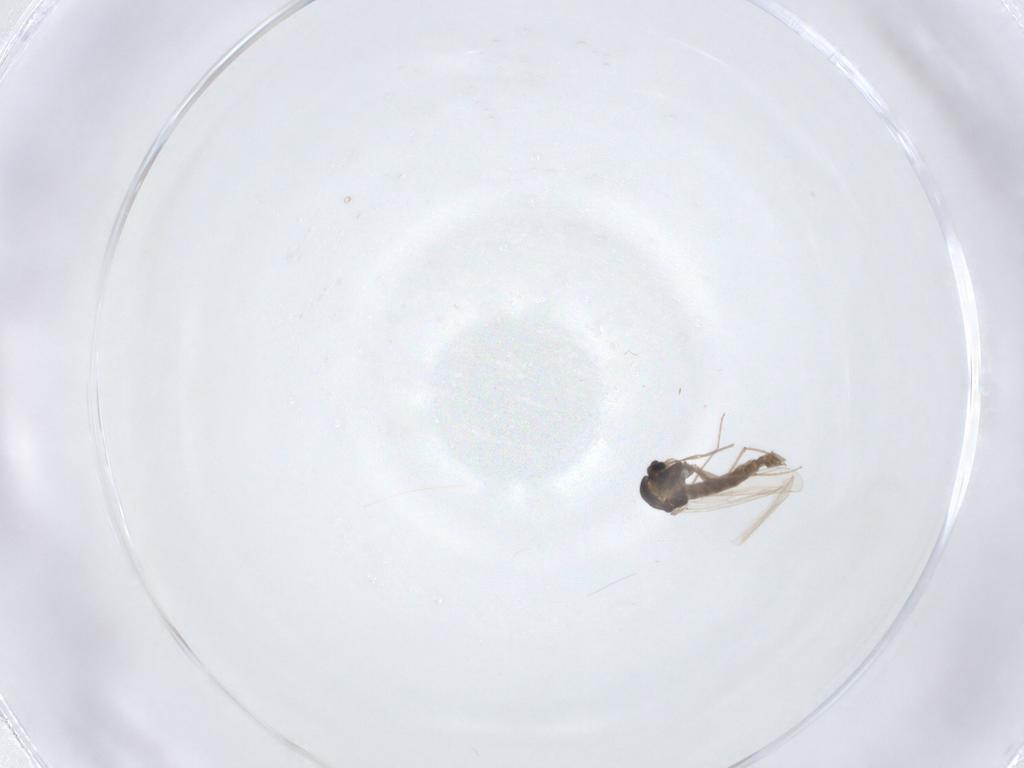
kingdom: Animalia
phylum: Arthropoda
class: Insecta
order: Diptera
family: Chironomidae
